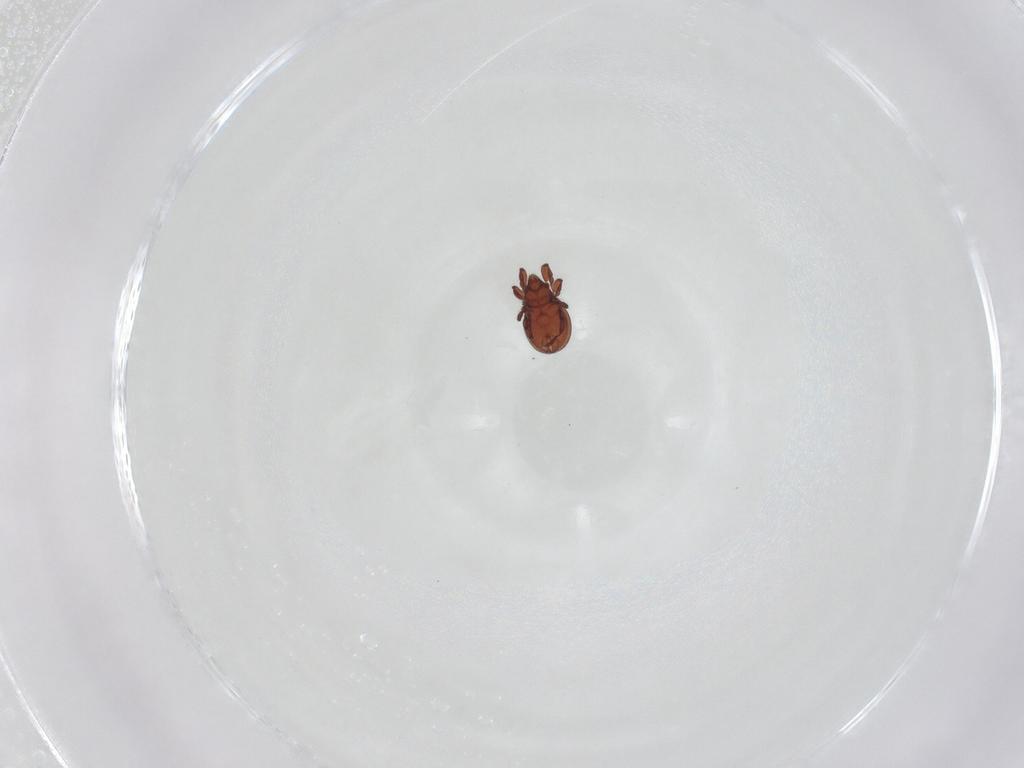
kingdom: Animalia
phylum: Arthropoda
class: Arachnida
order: Sarcoptiformes
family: Eremaeidae
